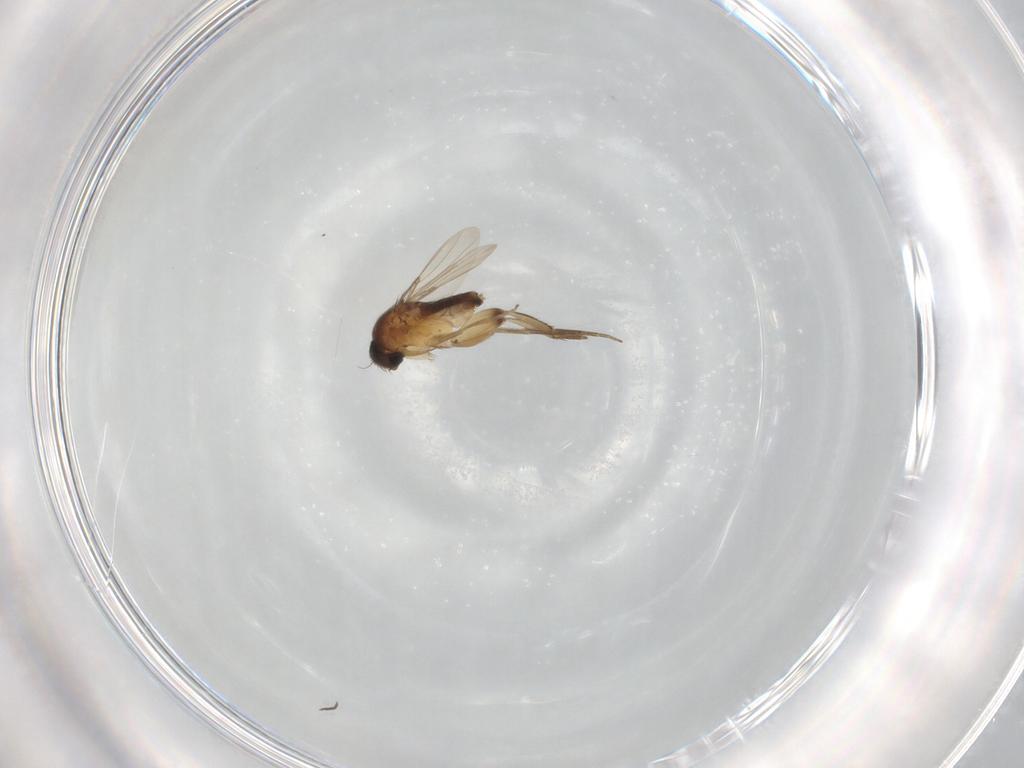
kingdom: Animalia
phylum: Arthropoda
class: Insecta
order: Diptera
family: Phoridae
